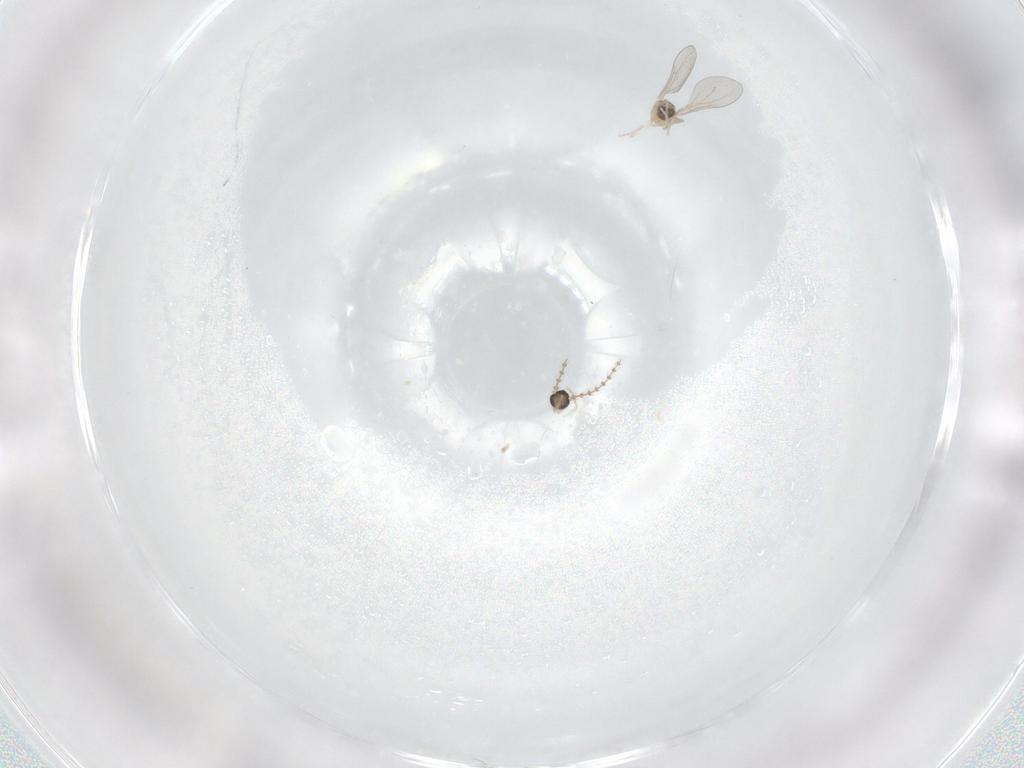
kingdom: Animalia
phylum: Arthropoda
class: Insecta
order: Diptera
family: Cecidomyiidae
